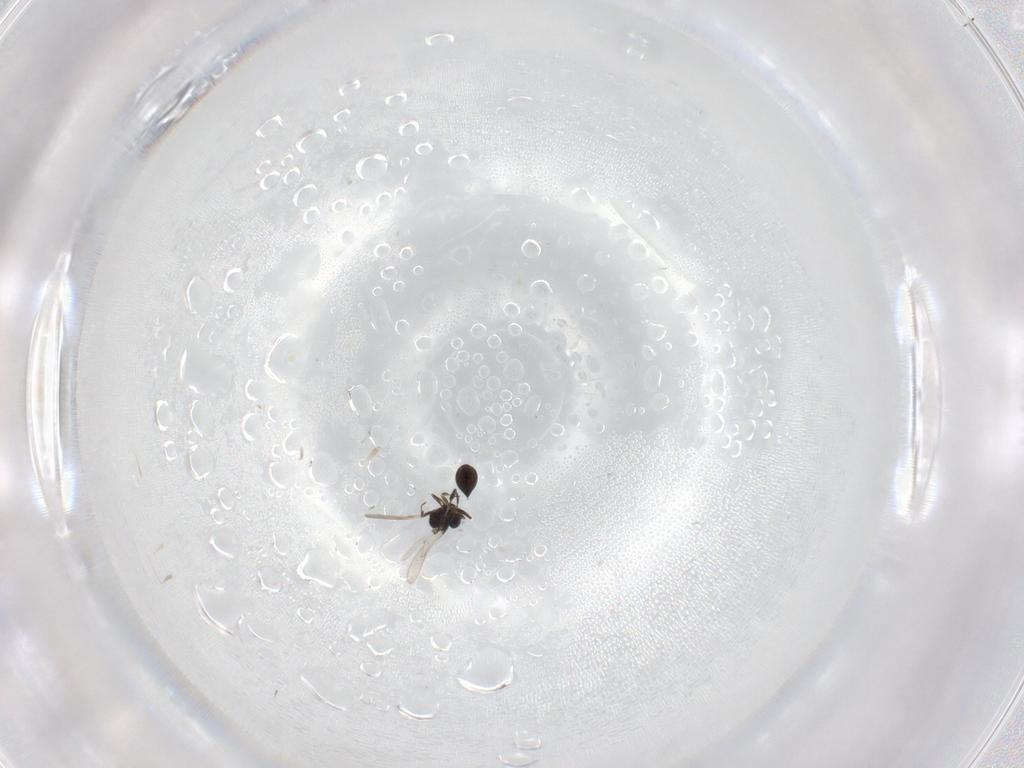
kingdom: Animalia
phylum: Arthropoda
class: Insecta
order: Hymenoptera
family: Scelionidae
